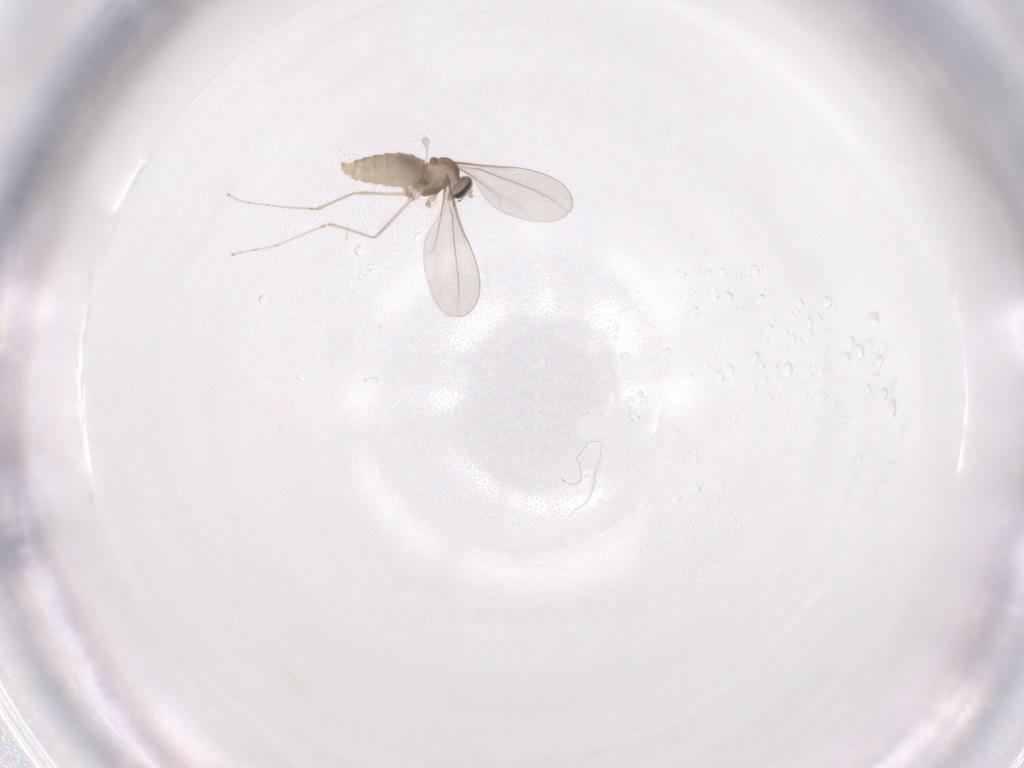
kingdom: Animalia
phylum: Arthropoda
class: Insecta
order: Diptera
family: Cecidomyiidae
